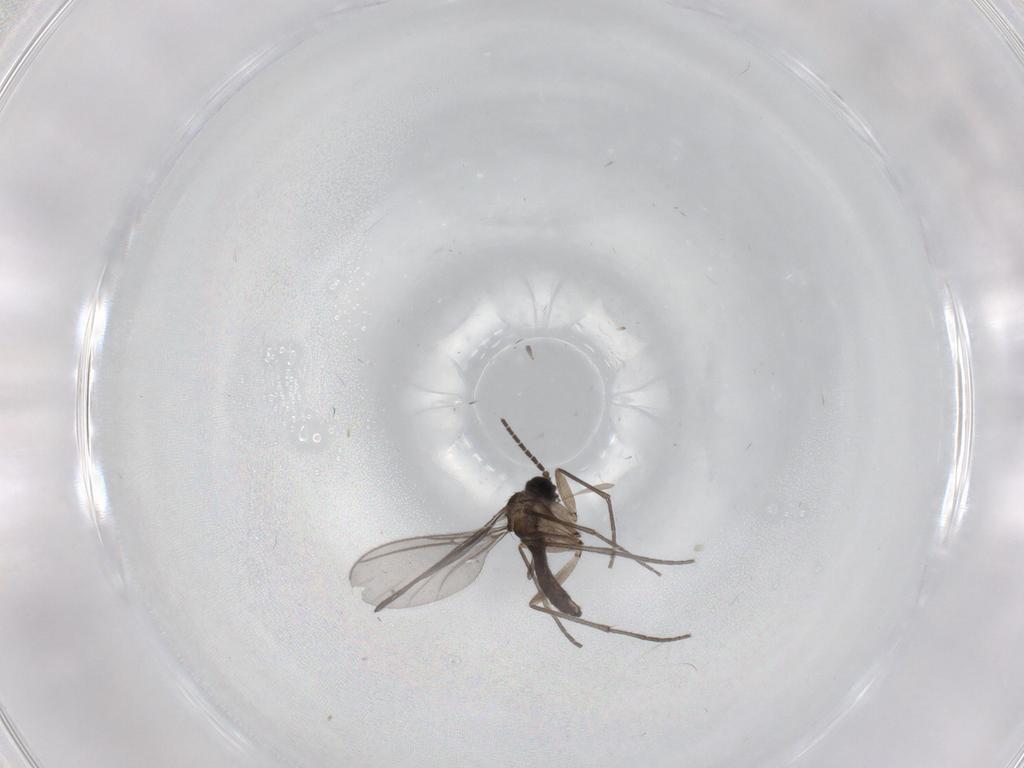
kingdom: Animalia
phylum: Arthropoda
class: Insecta
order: Diptera
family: Sciaridae
